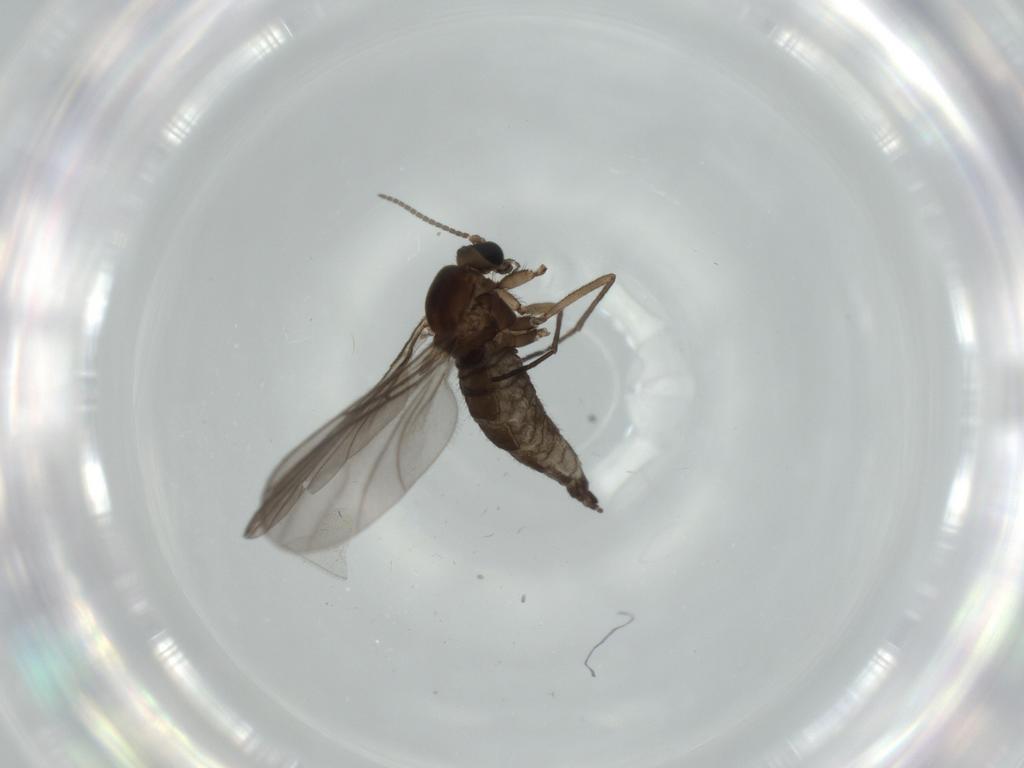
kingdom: Animalia
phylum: Arthropoda
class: Insecta
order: Diptera
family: Sciaridae
